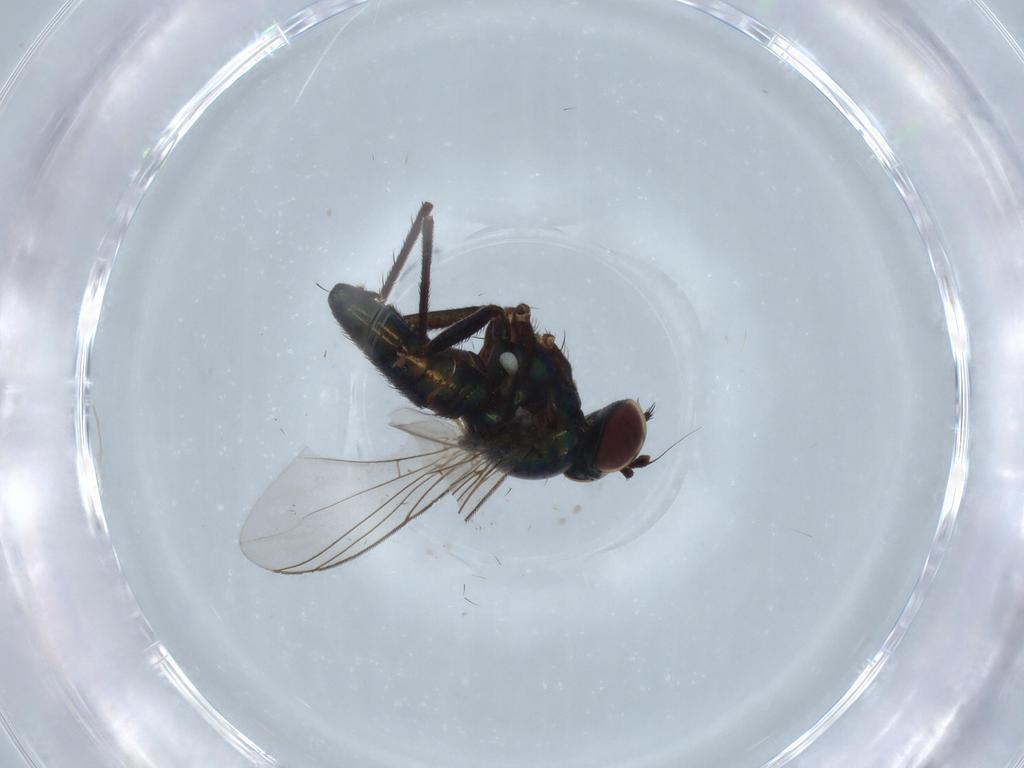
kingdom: Animalia
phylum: Arthropoda
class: Insecta
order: Diptera
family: Dolichopodidae
